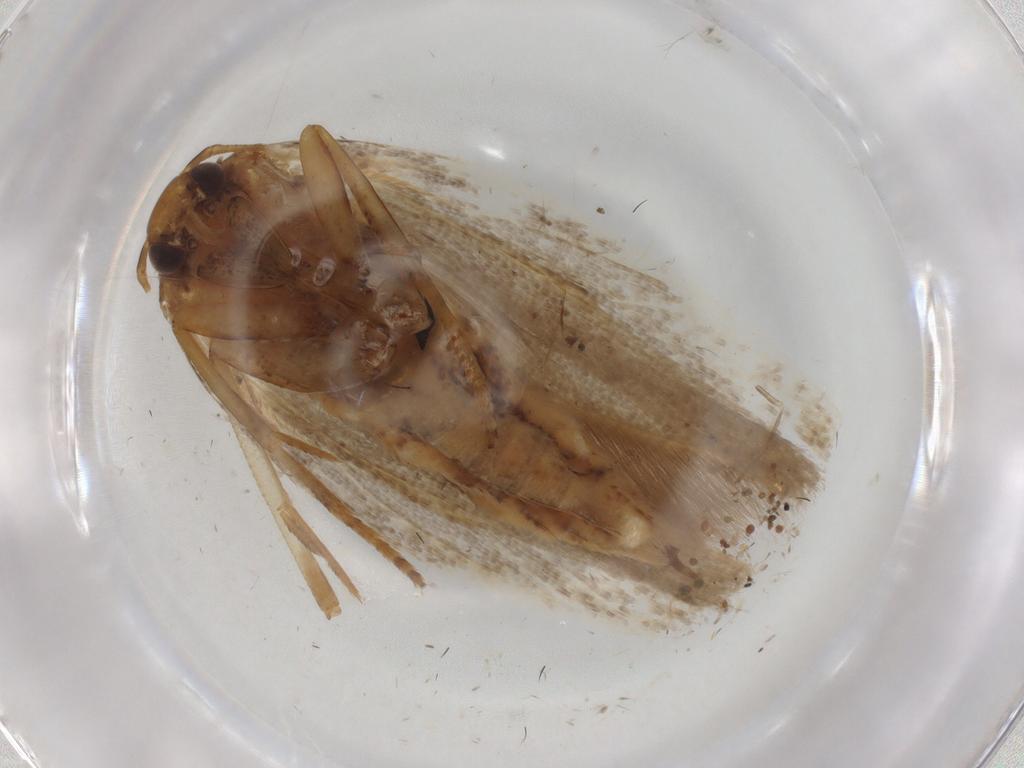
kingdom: Animalia
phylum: Arthropoda
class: Insecta
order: Lepidoptera
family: Gelechiidae
